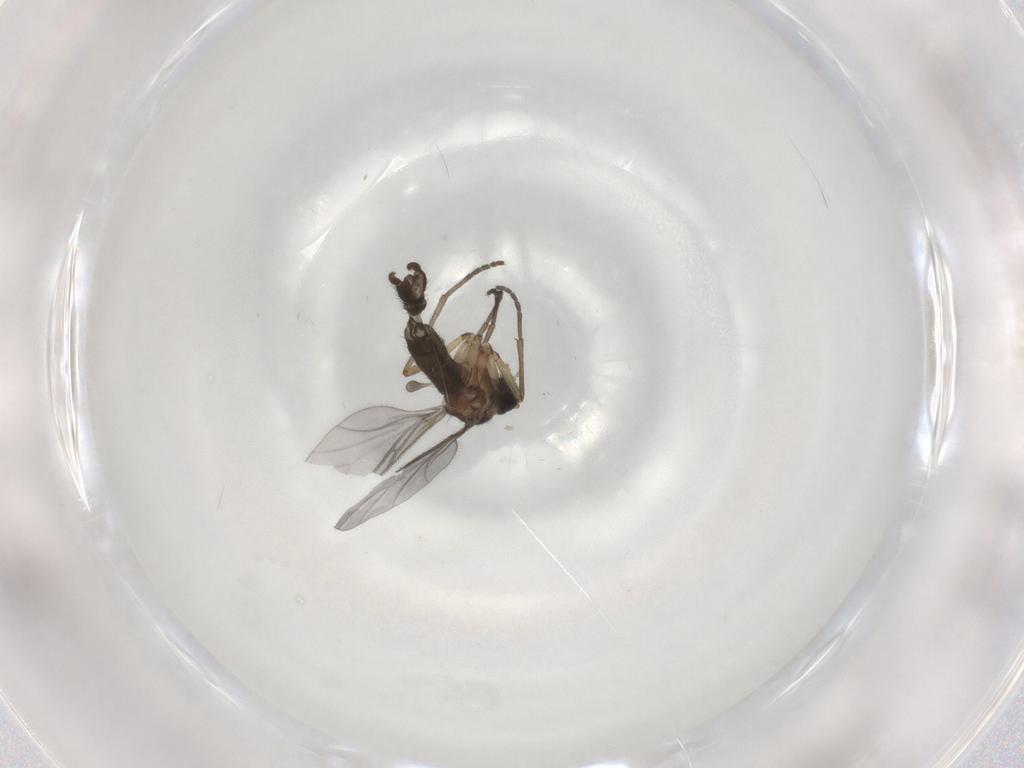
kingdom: Animalia
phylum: Arthropoda
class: Insecta
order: Diptera
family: Sciaridae
